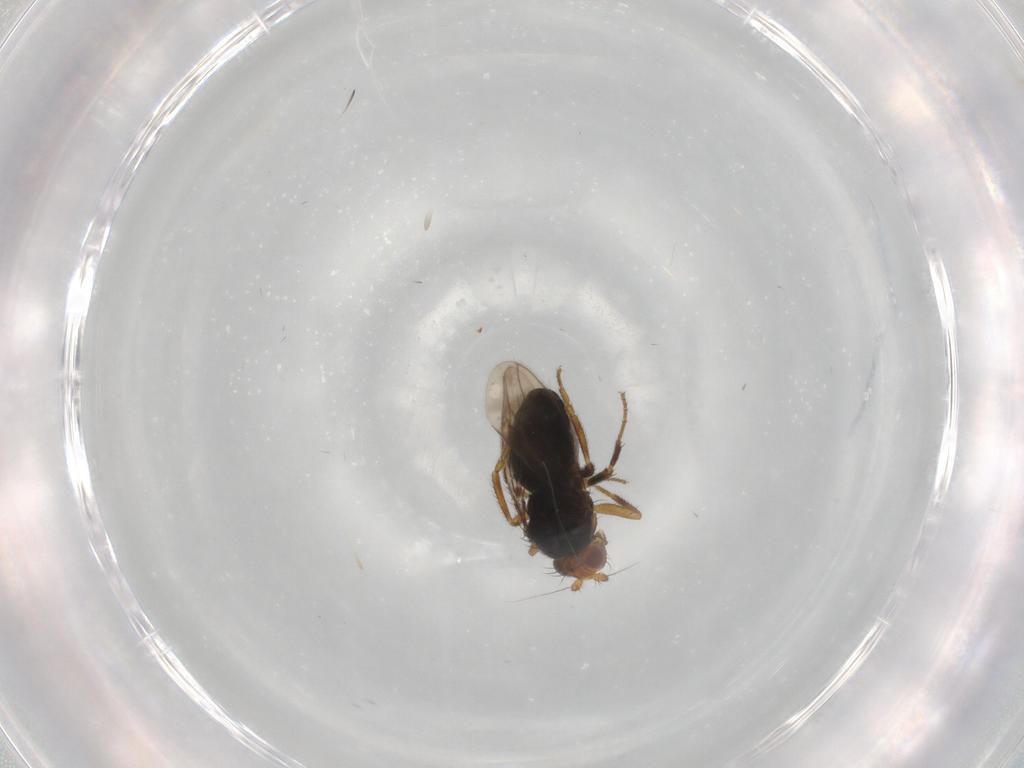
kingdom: Animalia
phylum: Arthropoda
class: Insecta
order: Diptera
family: Sphaeroceridae
